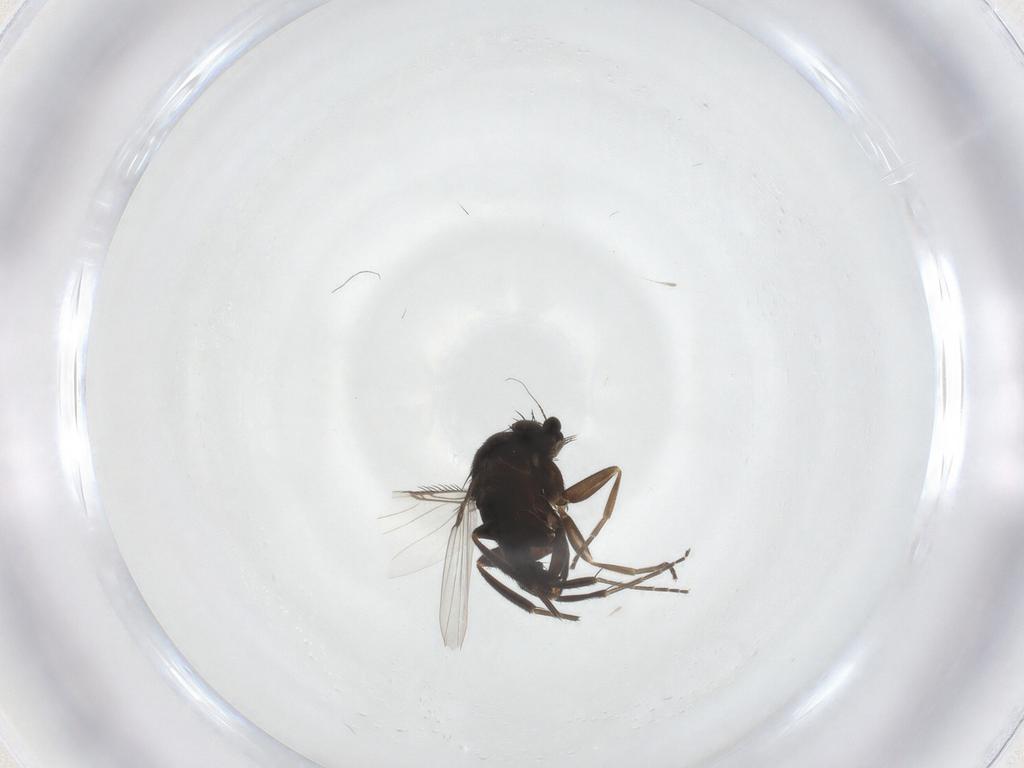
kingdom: Animalia
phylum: Arthropoda
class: Insecta
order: Diptera
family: Phoridae
